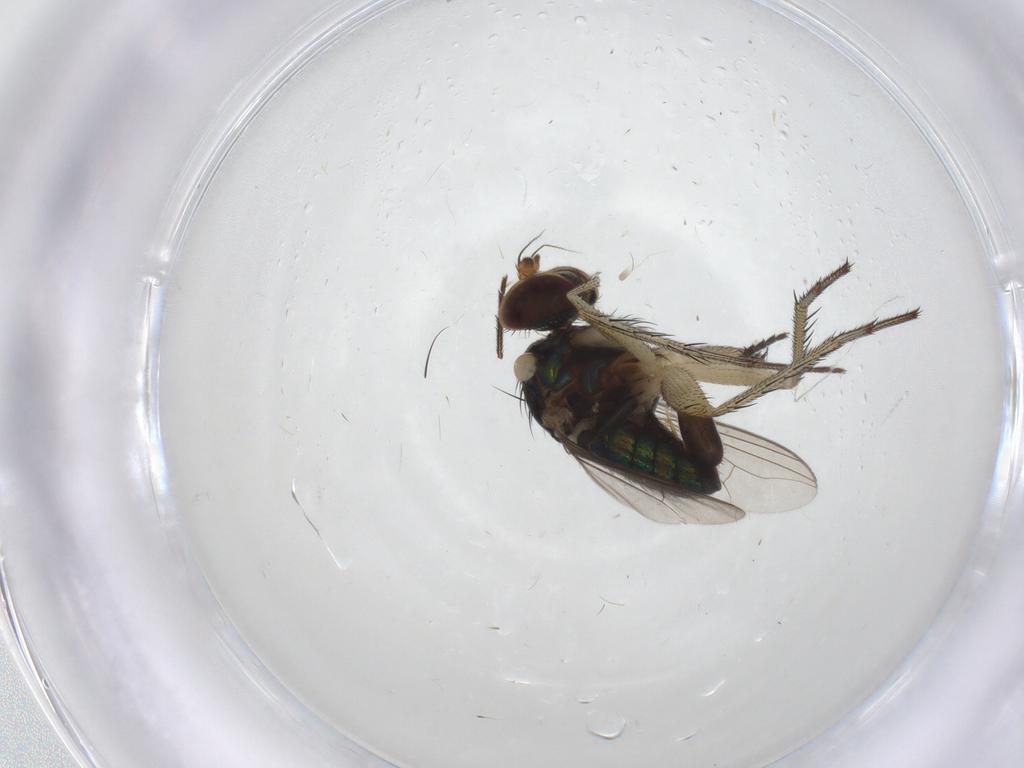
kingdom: Animalia
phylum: Arthropoda
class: Insecta
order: Diptera
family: Dolichopodidae
